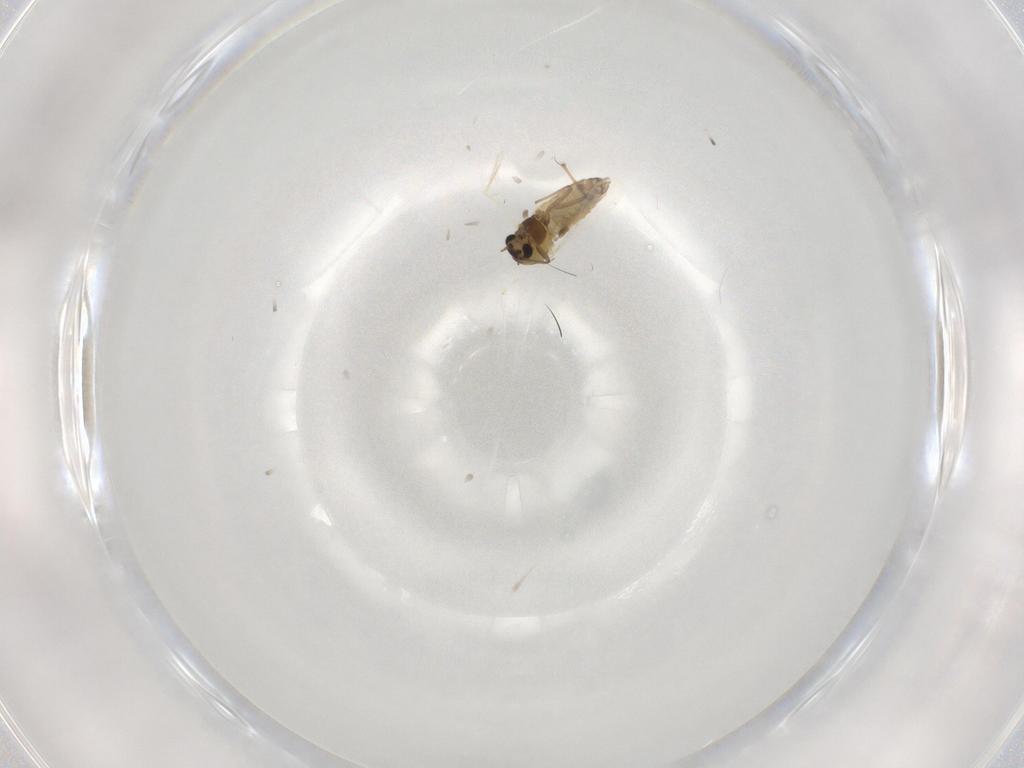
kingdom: Animalia
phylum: Arthropoda
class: Insecta
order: Diptera
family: Chironomidae
